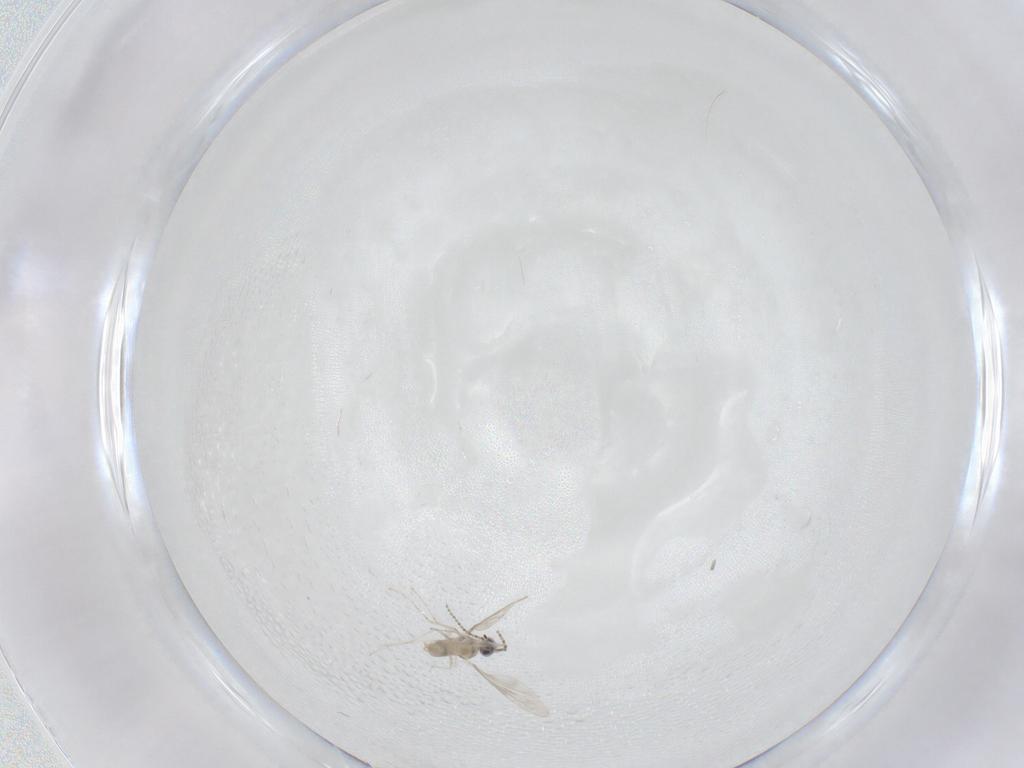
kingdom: Animalia
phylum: Arthropoda
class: Insecta
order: Diptera
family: Cecidomyiidae
